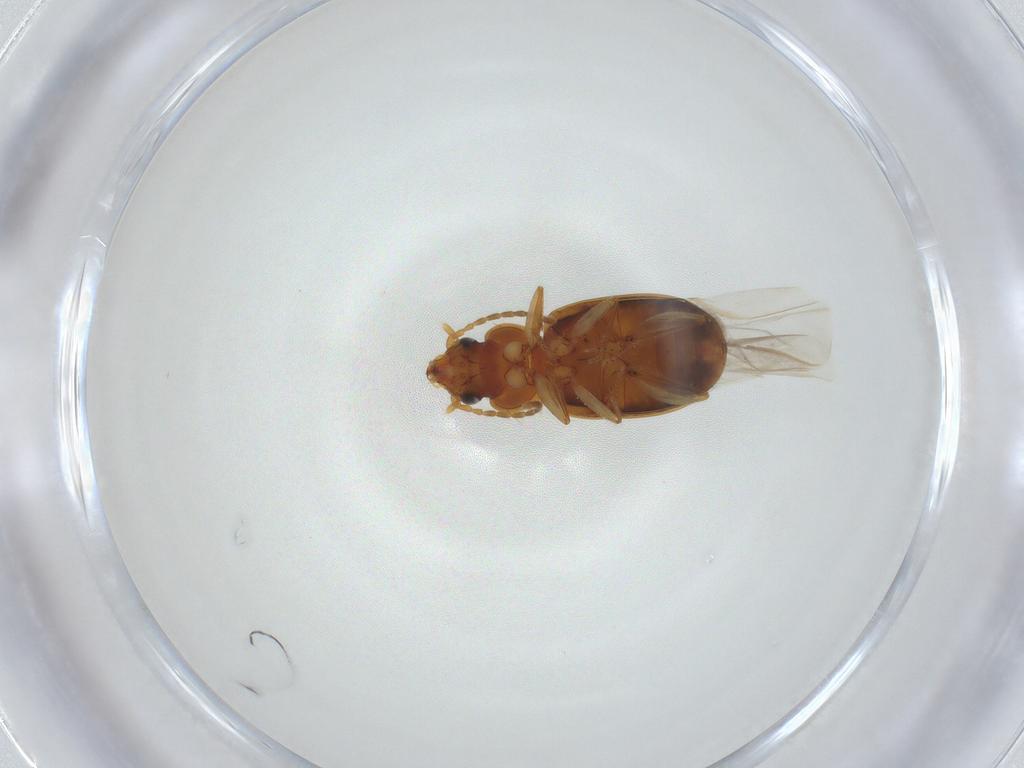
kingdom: Animalia
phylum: Arthropoda
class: Insecta
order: Coleoptera
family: Carabidae
